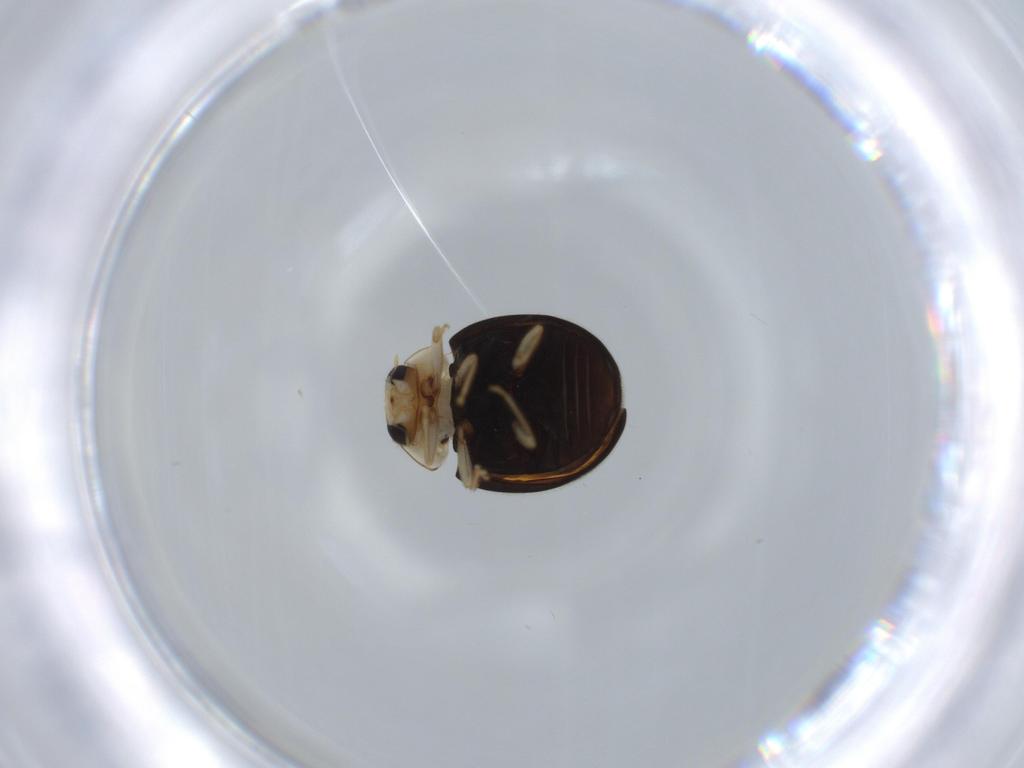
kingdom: Animalia
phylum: Arthropoda
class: Insecta
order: Coleoptera
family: Coccinellidae
